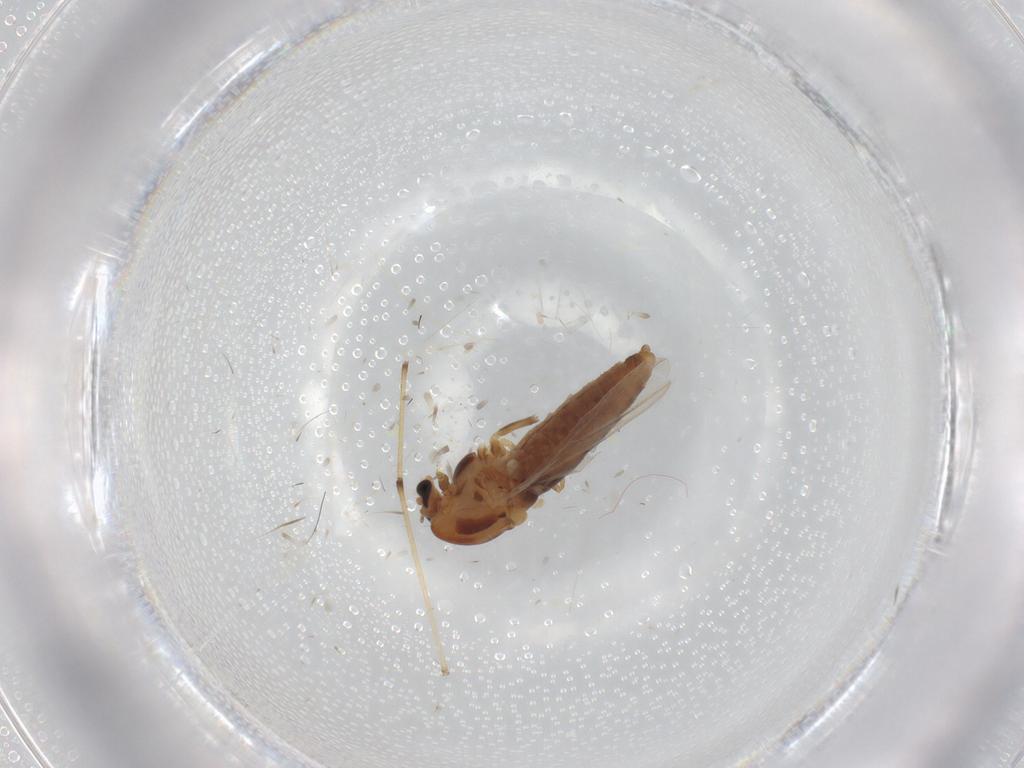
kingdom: Animalia
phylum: Arthropoda
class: Insecta
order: Diptera
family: Chironomidae
